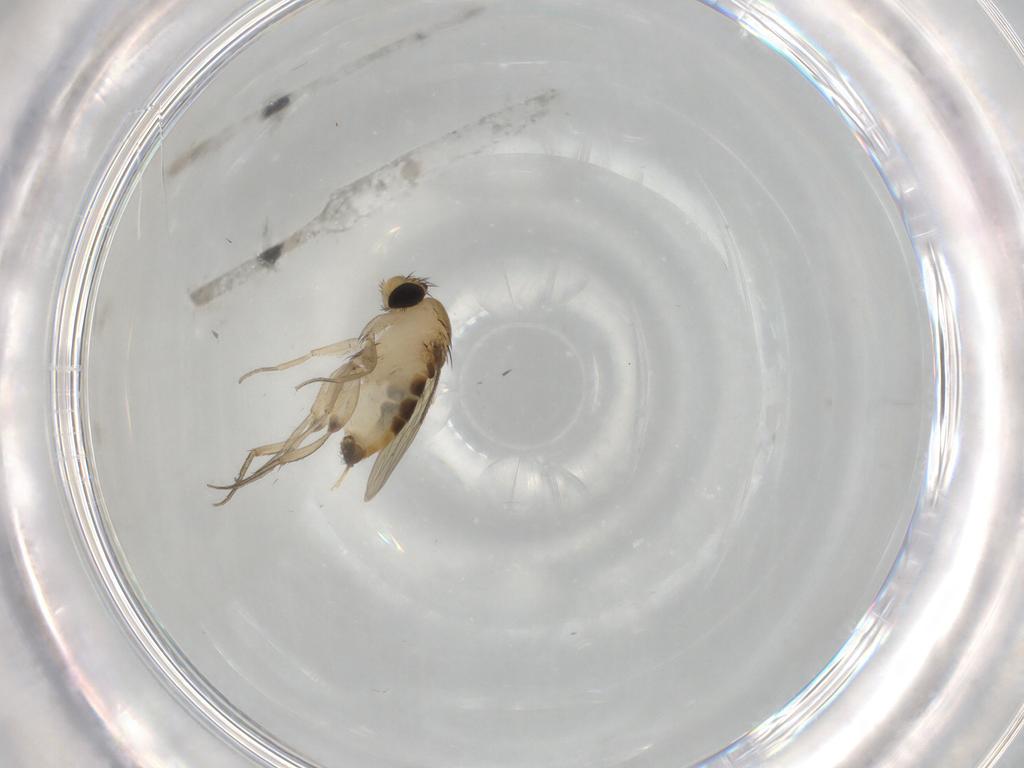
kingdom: Animalia
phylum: Arthropoda
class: Insecta
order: Diptera
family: Phoridae
